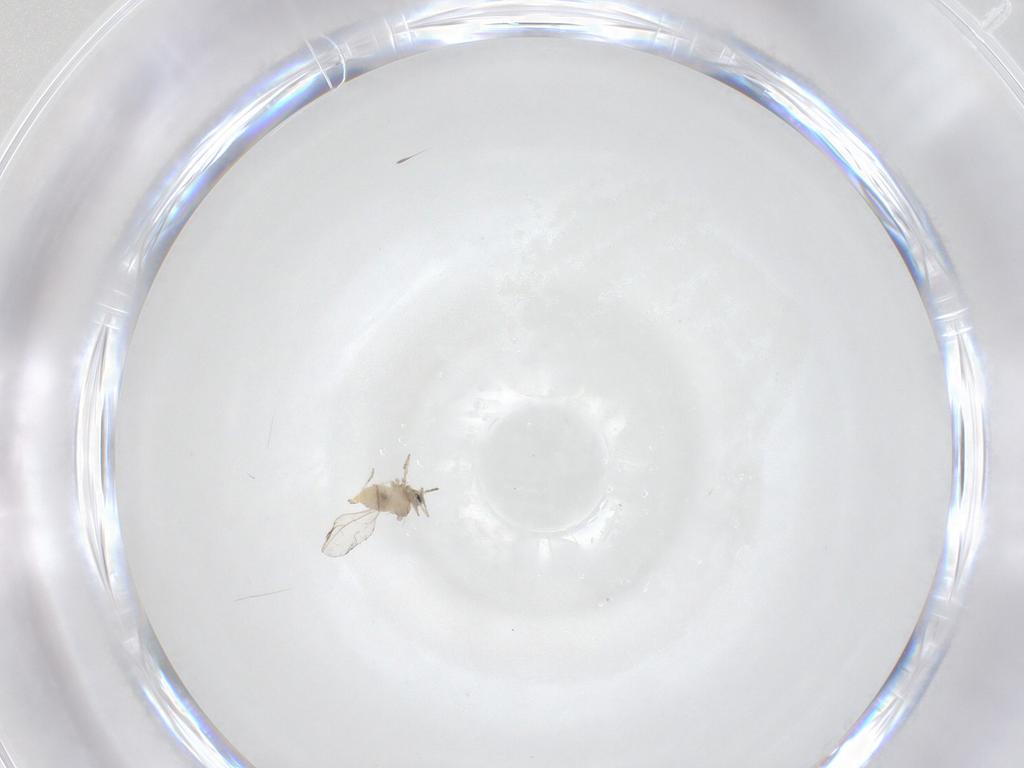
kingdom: Animalia
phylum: Arthropoda
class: Insecta
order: Diptera
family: Cecidomyiidae
